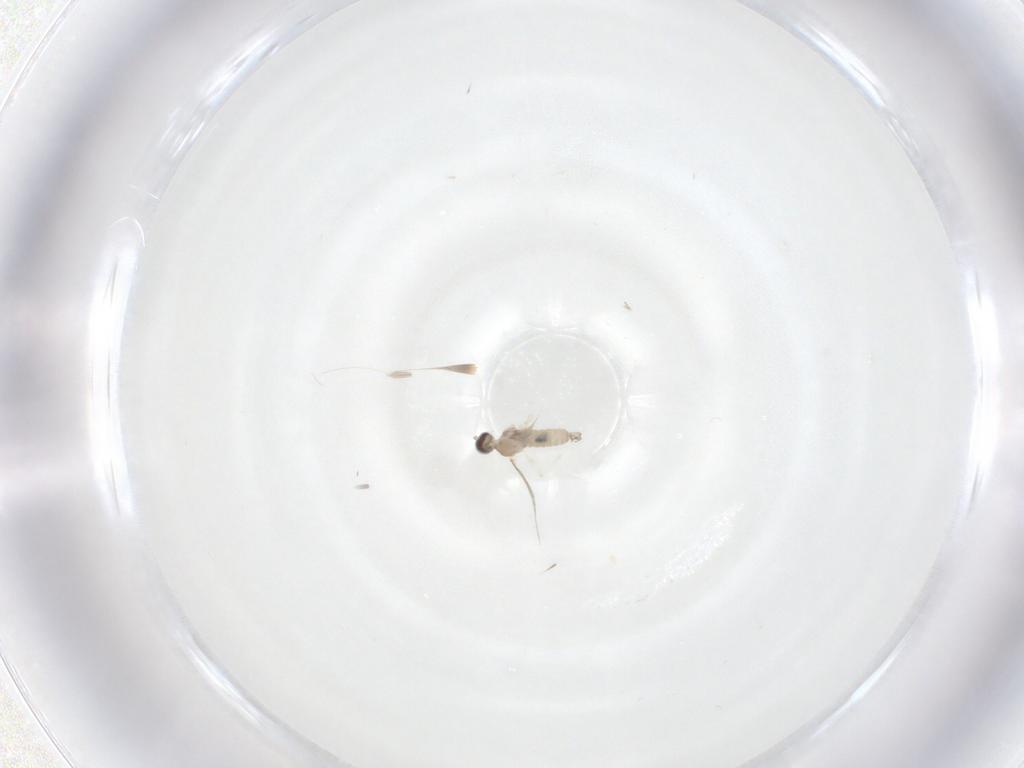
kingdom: Animalia
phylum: Arthropoda
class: Insecta
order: Diptera
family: Cecidomyiidae
